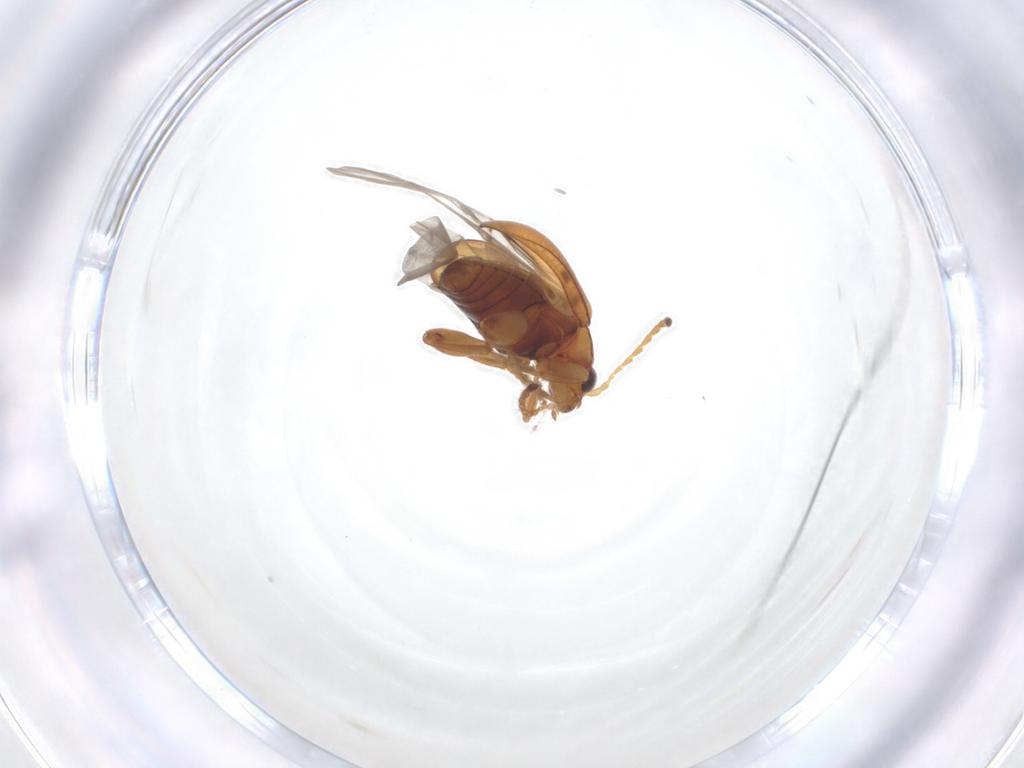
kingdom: Animalia
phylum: Arthropoda
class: Insecta
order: Coleoptera
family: Chrysomelidae
